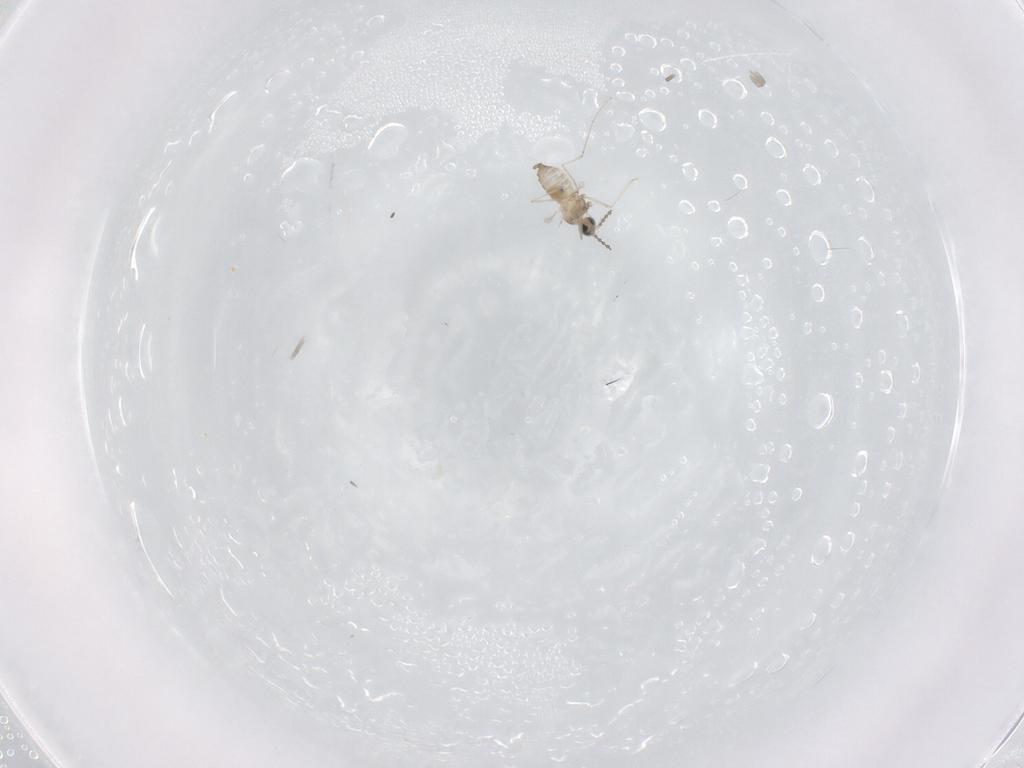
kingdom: Animalia
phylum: Arthropoda
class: Insecta
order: Diptera
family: Cecidomyiidae
